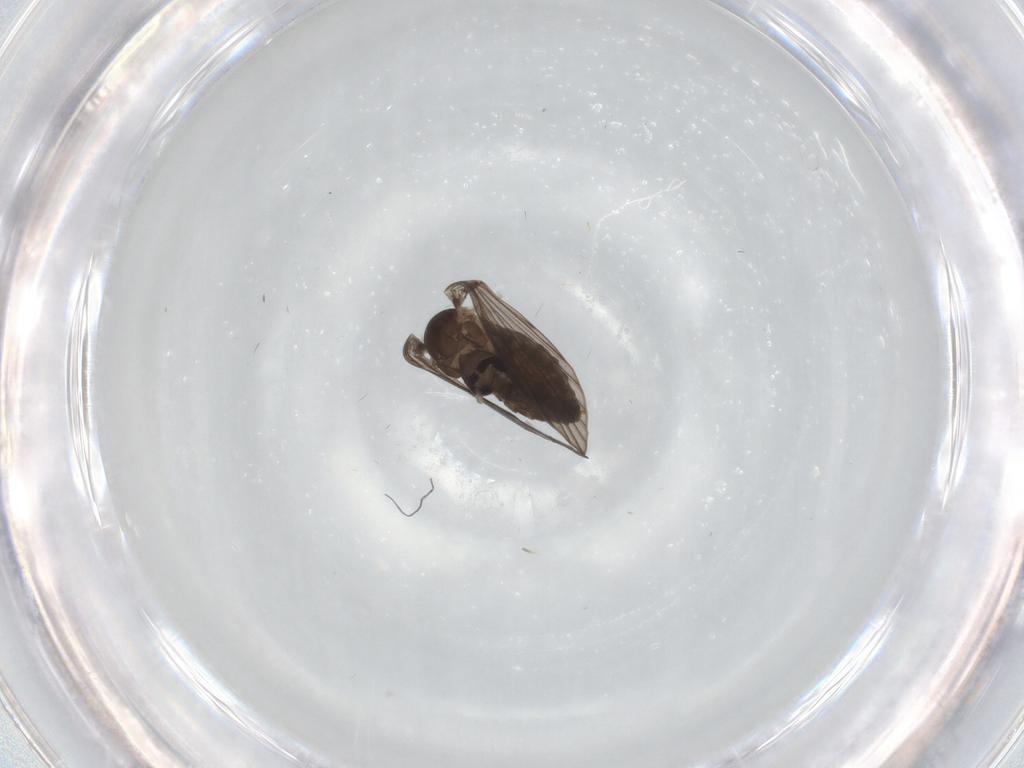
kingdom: Animalia
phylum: Arthropoda
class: Insecta
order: Diptera
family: Psychodidae
